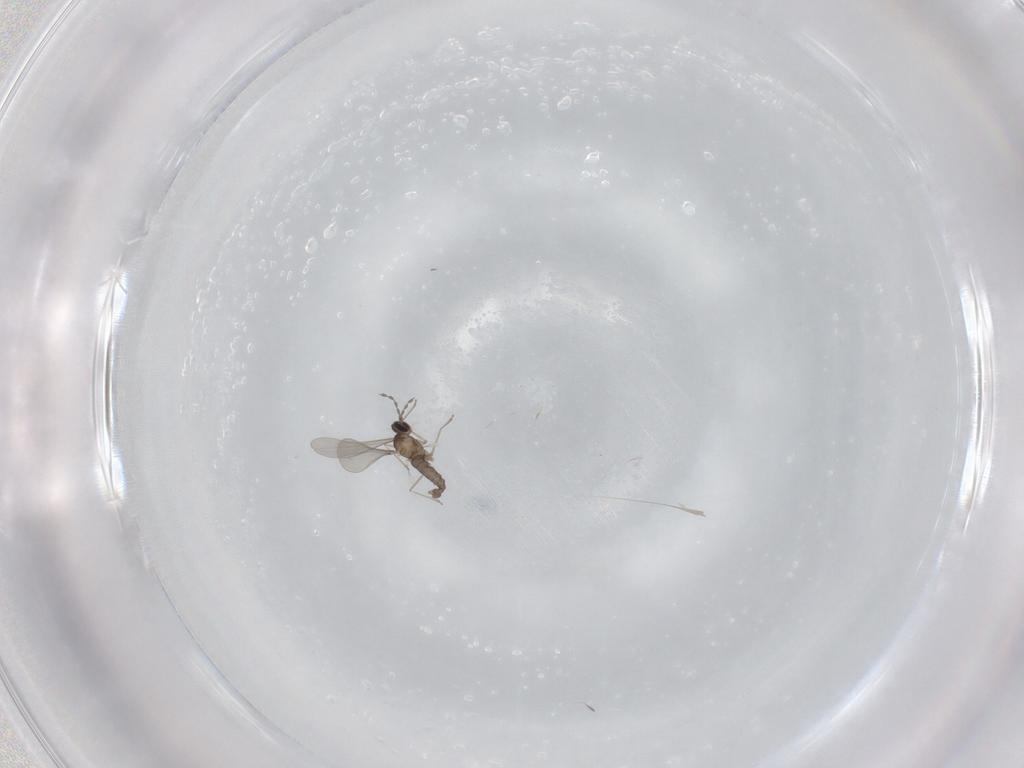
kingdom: Animalia
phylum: Arthropoda
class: Insecta
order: Diptera
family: Cecidomyiidae
